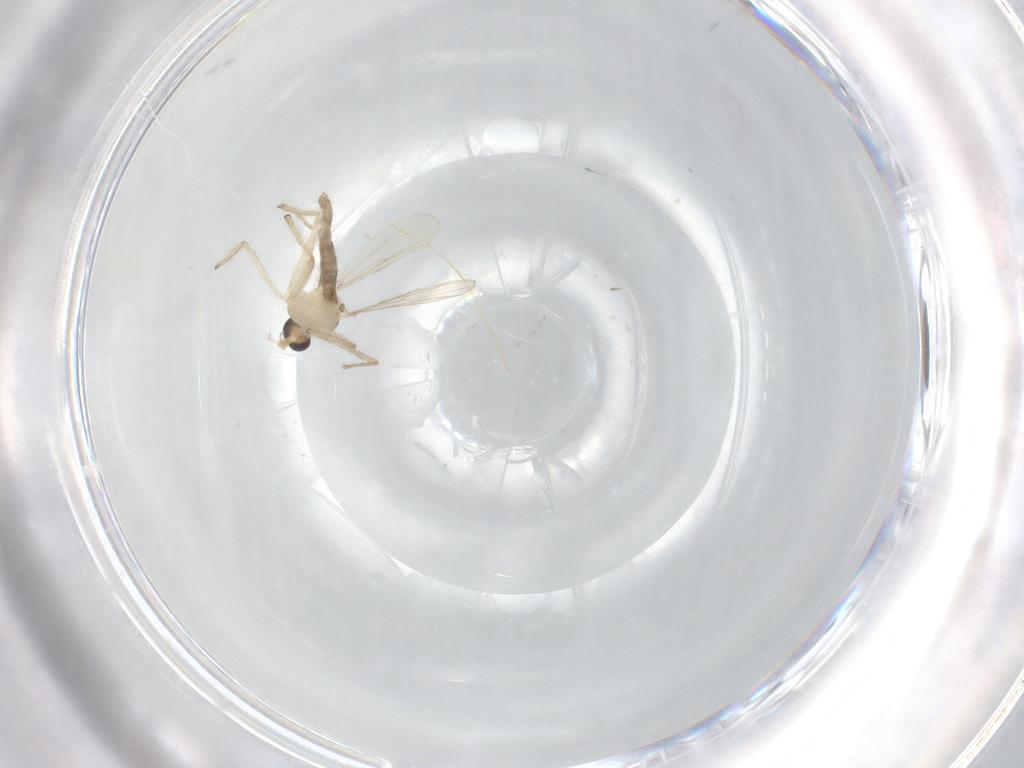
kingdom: Animalia
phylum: Arthropoda
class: Insecta
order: Diptera
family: Chironomidae
